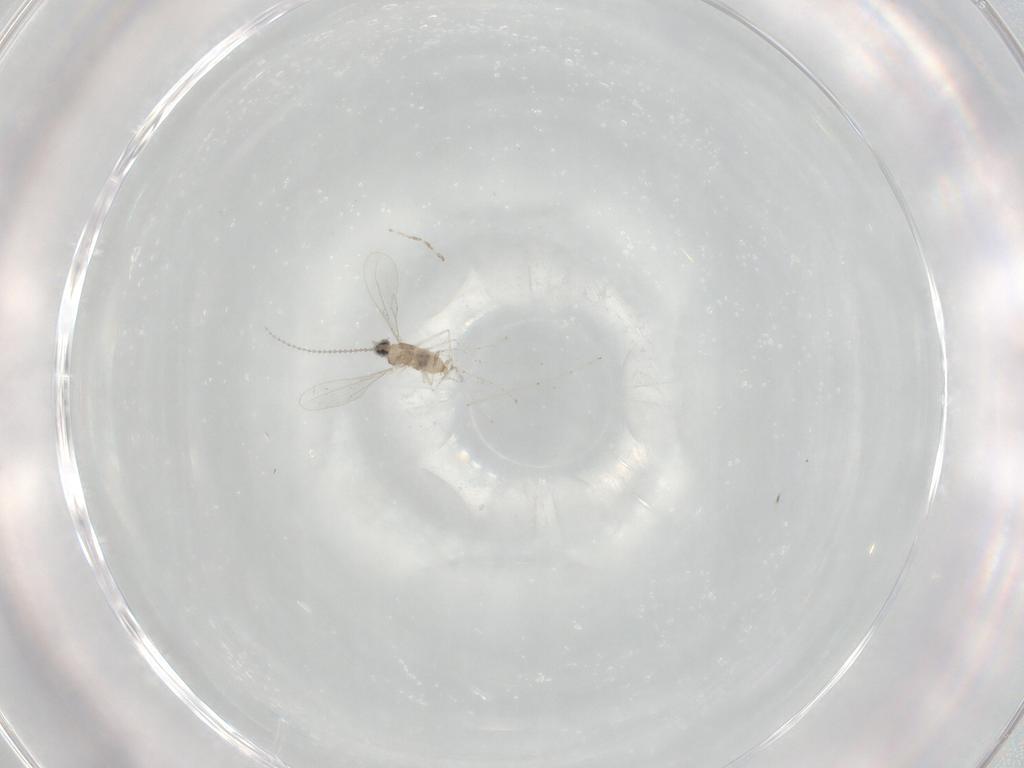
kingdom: Animalia
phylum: Arthropoda
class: Insecta
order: Diptera
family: Cecidomyiidae
